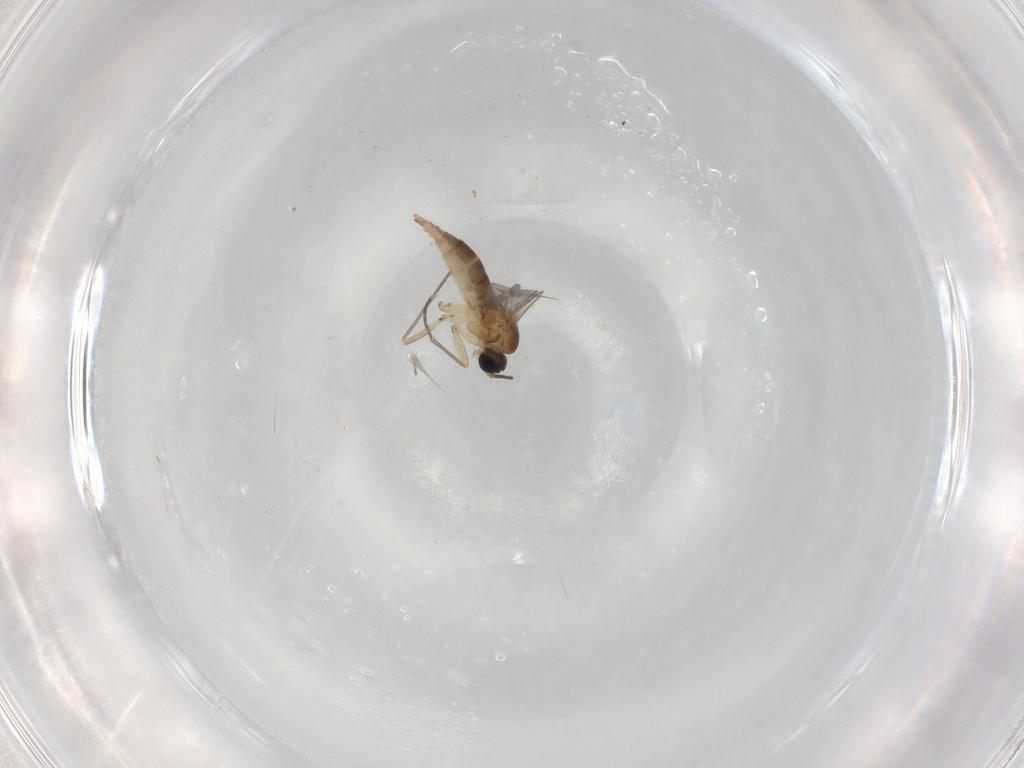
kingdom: Animalia
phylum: Arthropoda
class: Insecta
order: Diptera
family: Sciaridae
